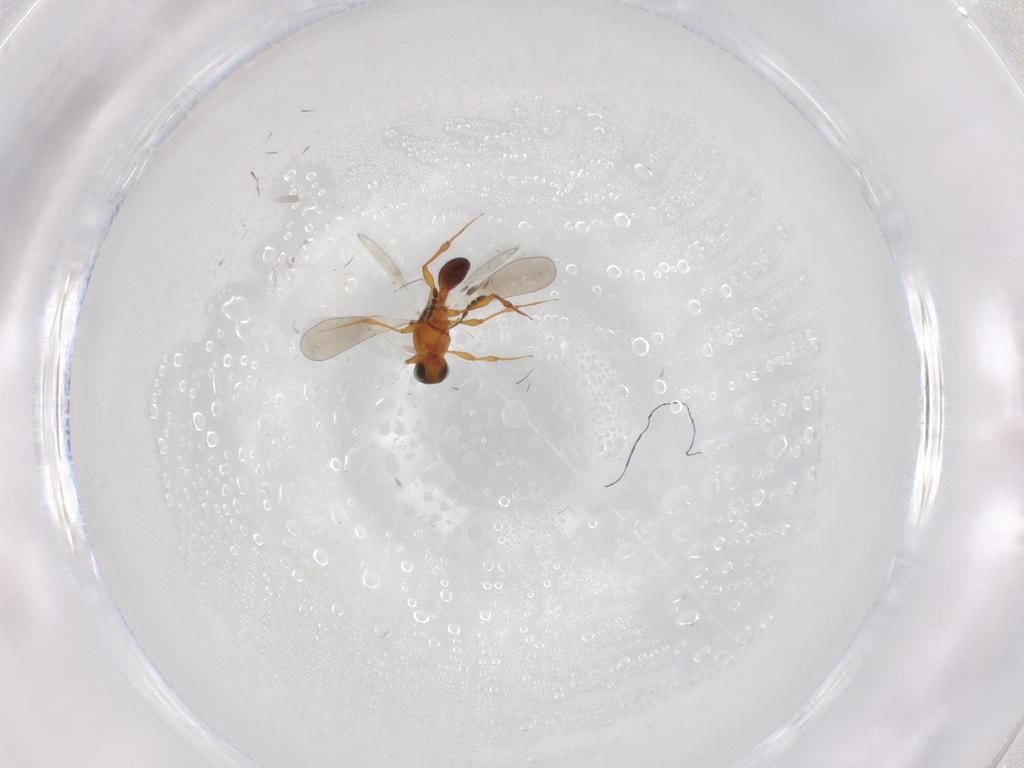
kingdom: Animalia
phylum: Arthropoda
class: Insecta
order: Hymenoptera
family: Platygastridae
